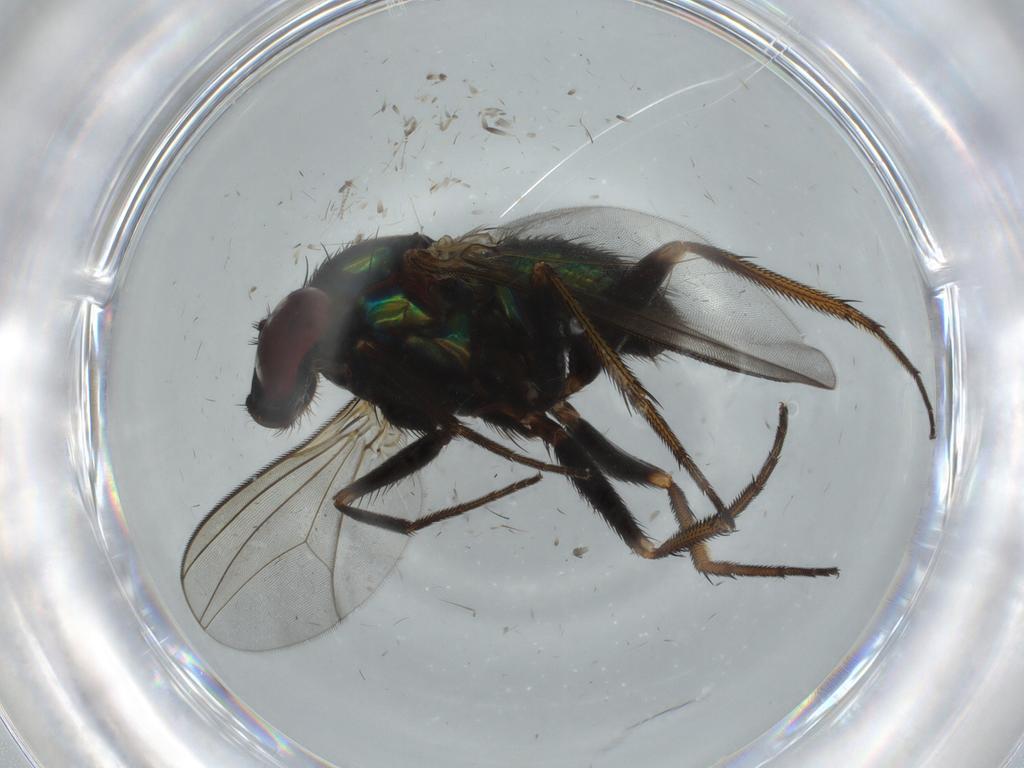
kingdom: Animalia
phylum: Arthropoda
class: Insecta
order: Diptera
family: Dolichopodidae
